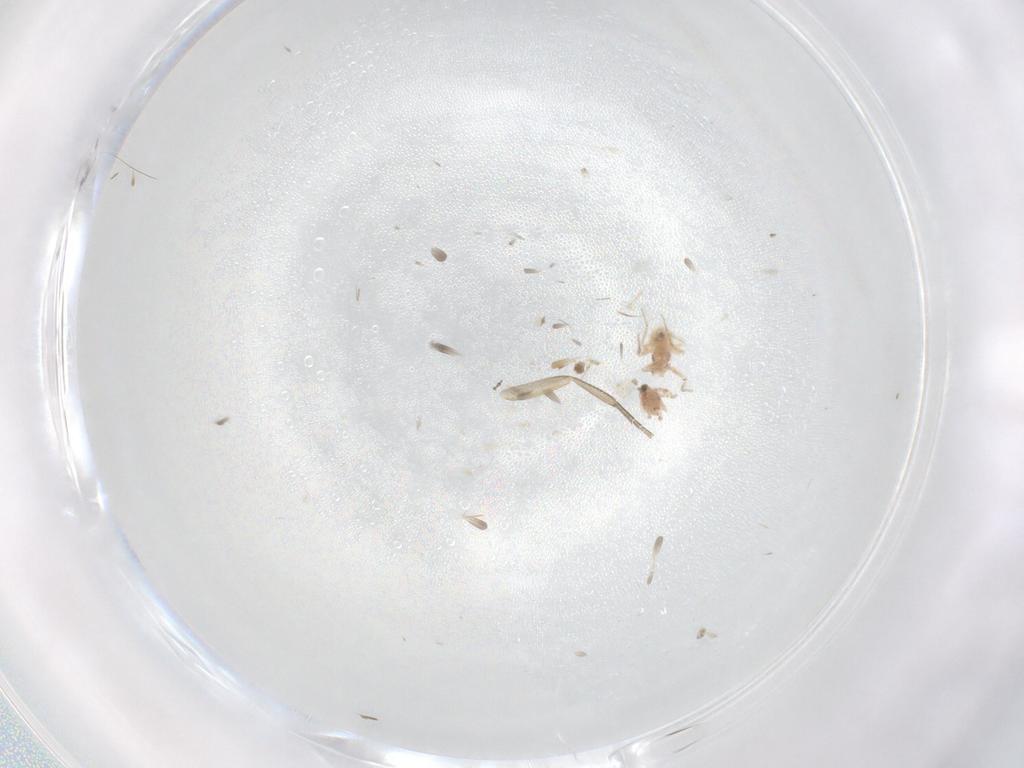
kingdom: Animalia
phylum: Arthropoda
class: Insecta
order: Diptera
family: Phoridae
